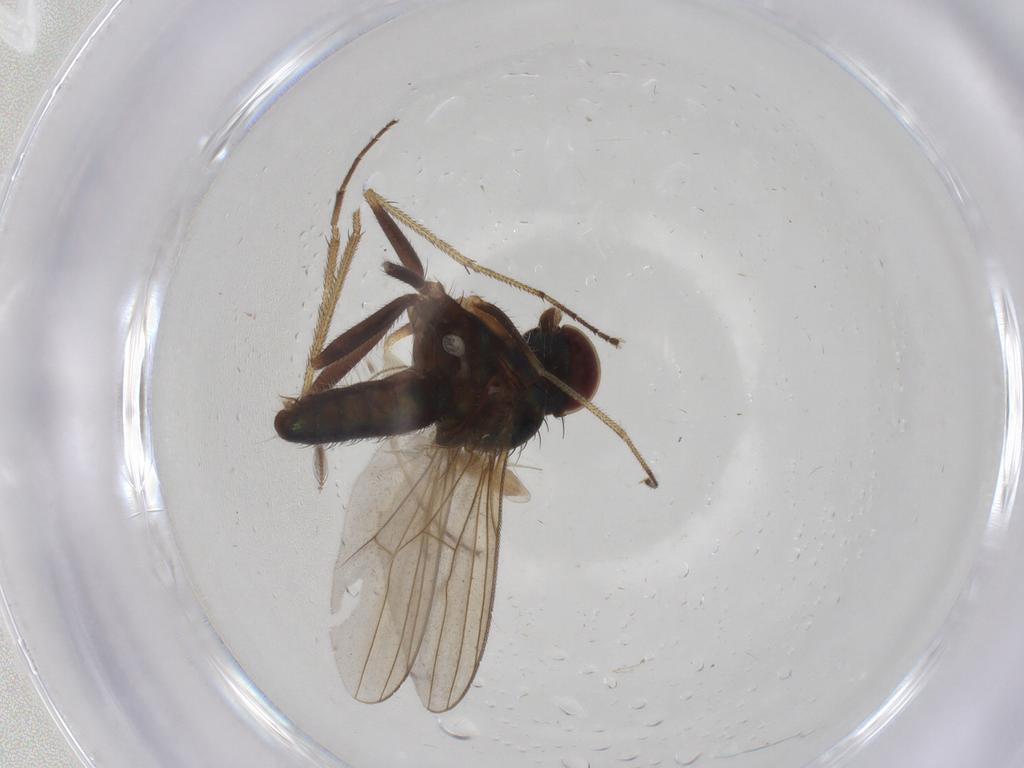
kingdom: Animalia
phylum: Arthropoda
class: Insecta
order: Diptera
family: Dolichopodidae
